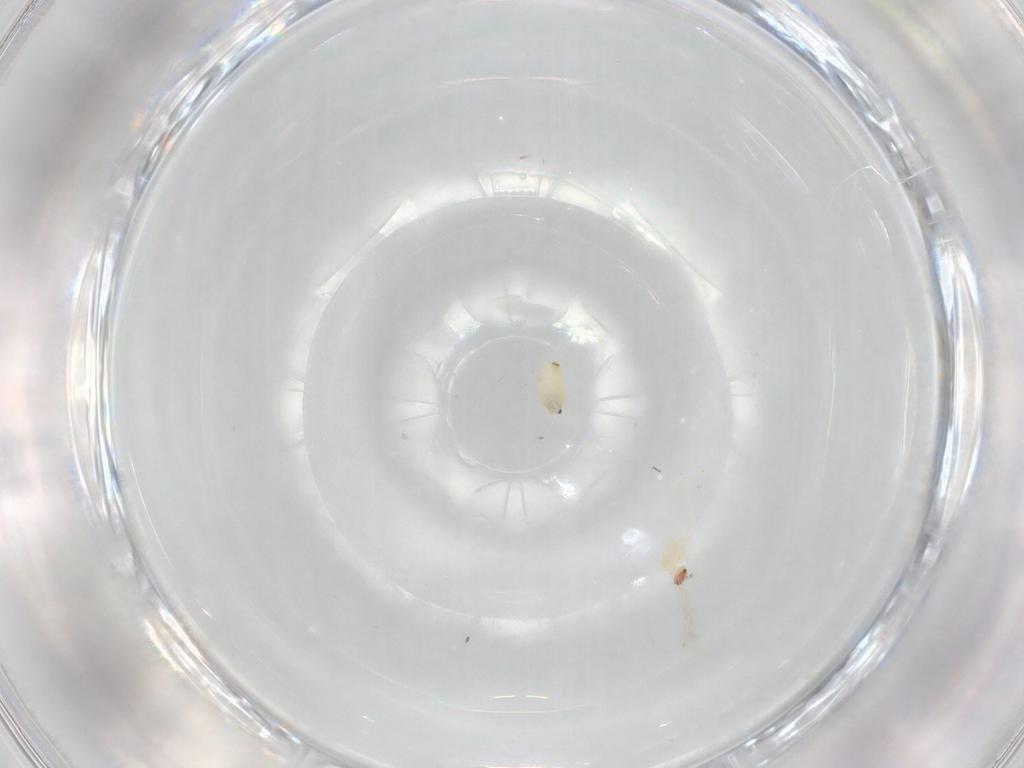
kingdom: Animalia
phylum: Arthropoda
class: Insecta
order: Diptera
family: Cecidomyiidae
